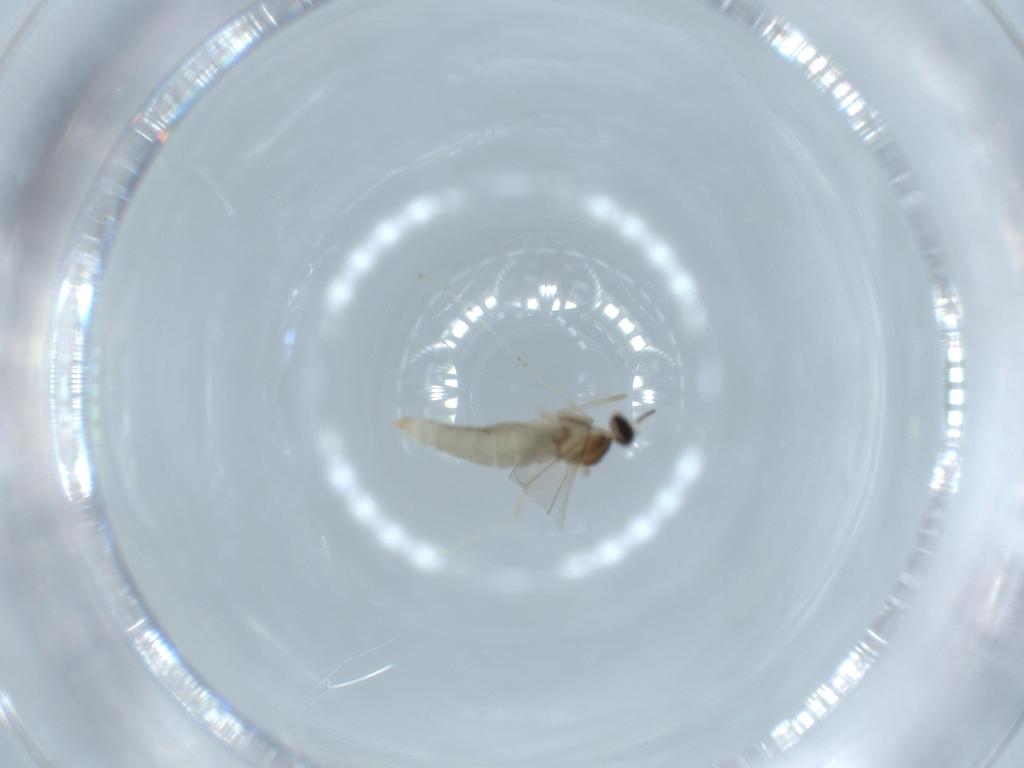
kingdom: Animalia
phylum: Arthropoda
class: Insecta
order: Diptera
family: Cecidomyiidae
